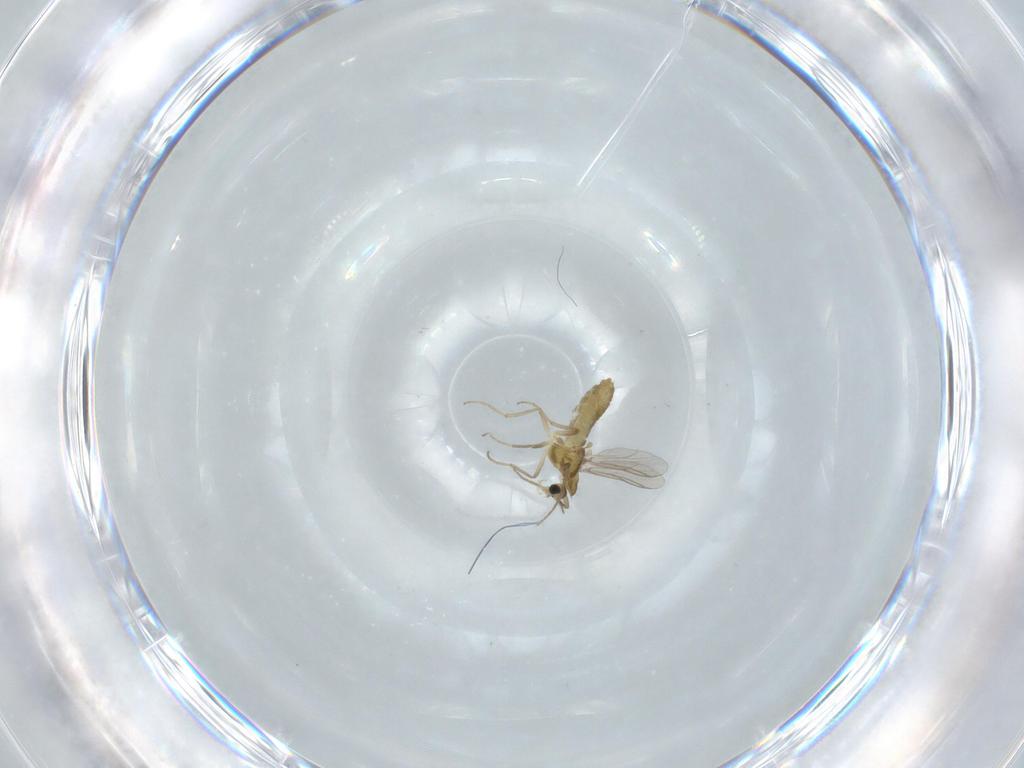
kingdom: Animalia
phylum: Arthropoda
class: Insecta
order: Diptera
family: Chironomidae
